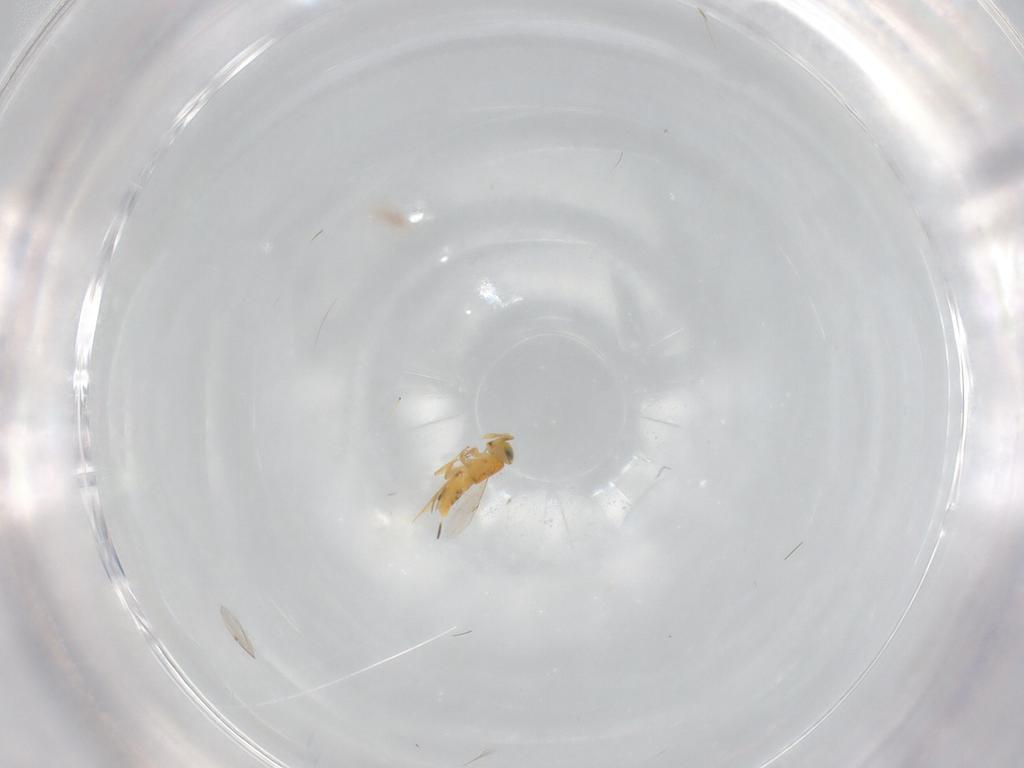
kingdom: Animalia
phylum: Arthropoda
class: Insecta
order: Hymenoptera
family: Encyrtidae
